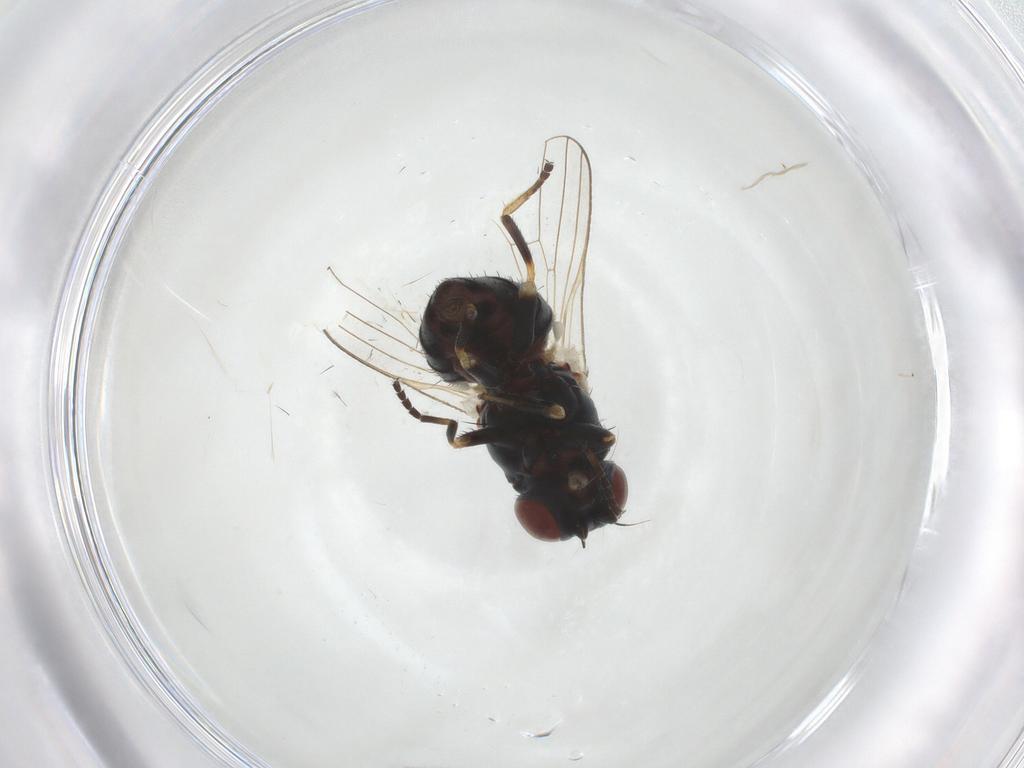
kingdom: Animalia
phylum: Arthropoda
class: Insecta
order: Diptera
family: Chamaemyiidae
